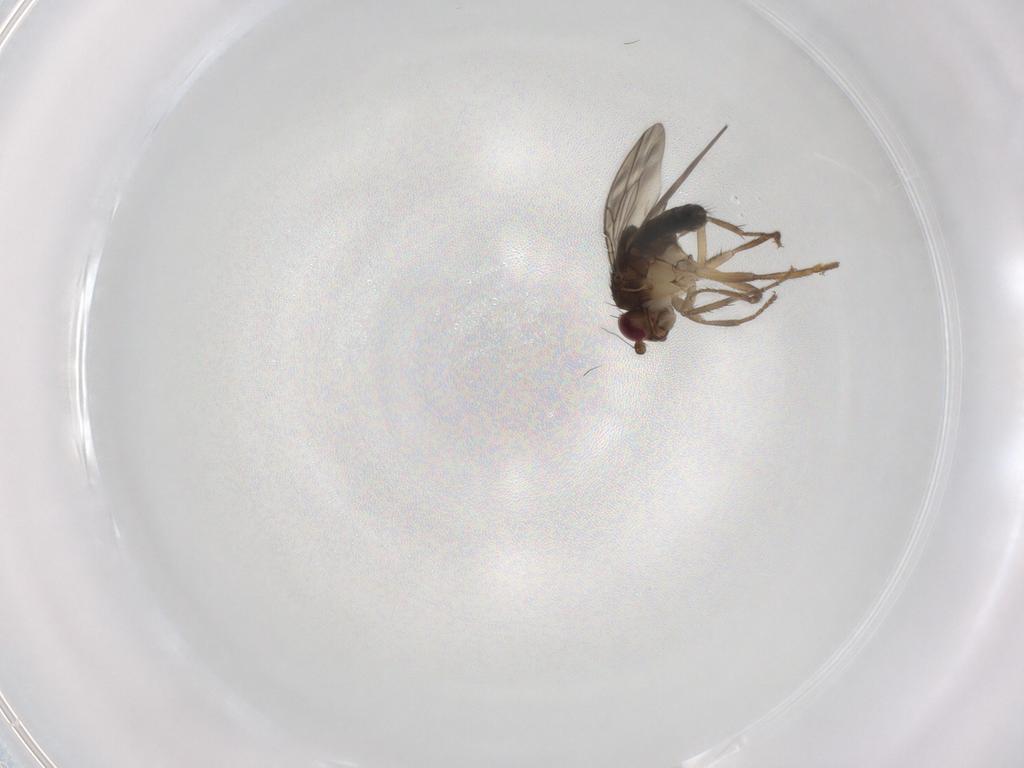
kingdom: Animalia
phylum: Arthropoda
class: Insecta
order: Diptera
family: Sphaeroceridae
